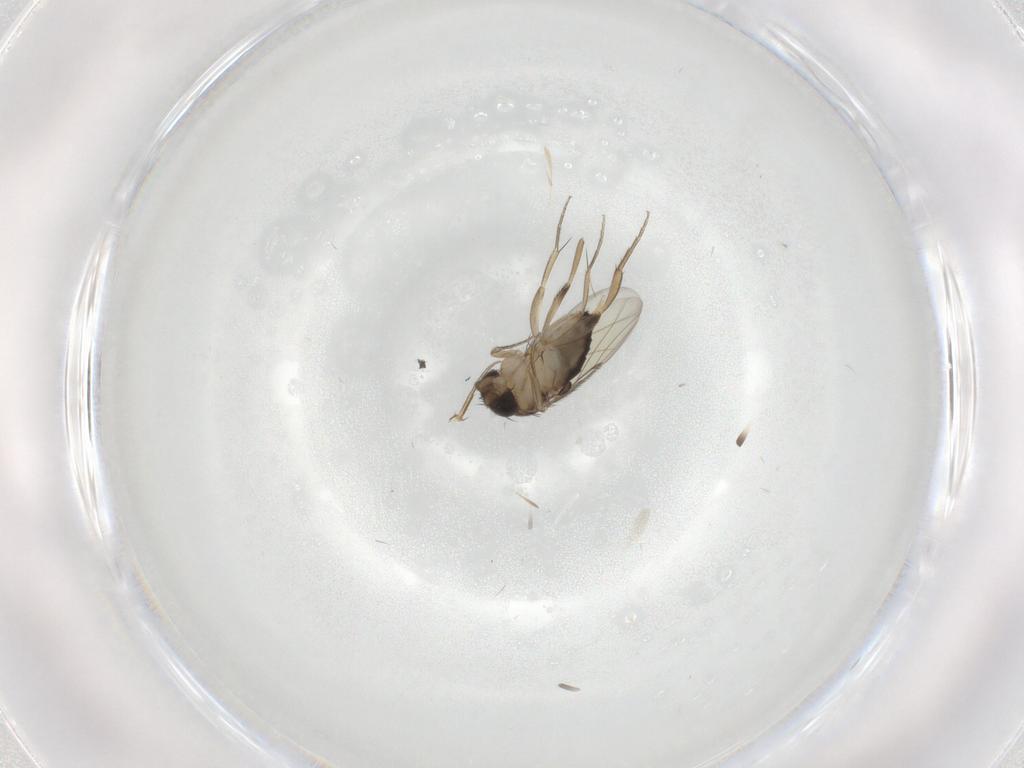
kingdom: Animalia
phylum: Arthropoda
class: Insecta
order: Diptera
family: Phoridae
